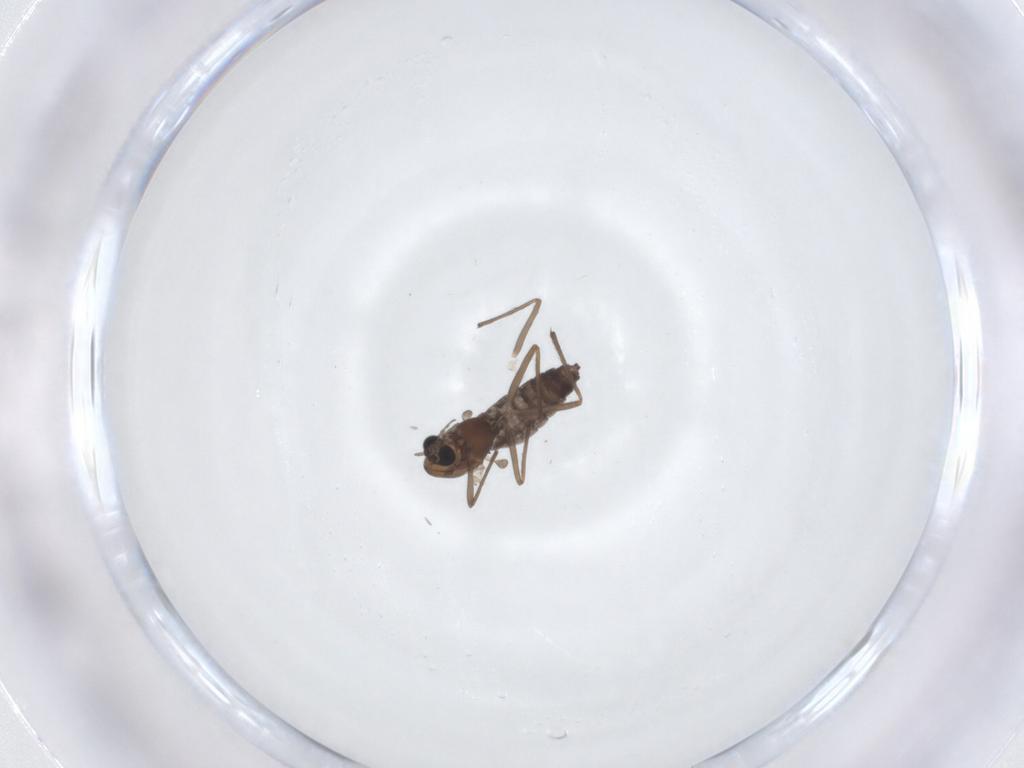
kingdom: Animalia
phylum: Arthropoda
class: Insecta
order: Diptera
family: Chironomidae
